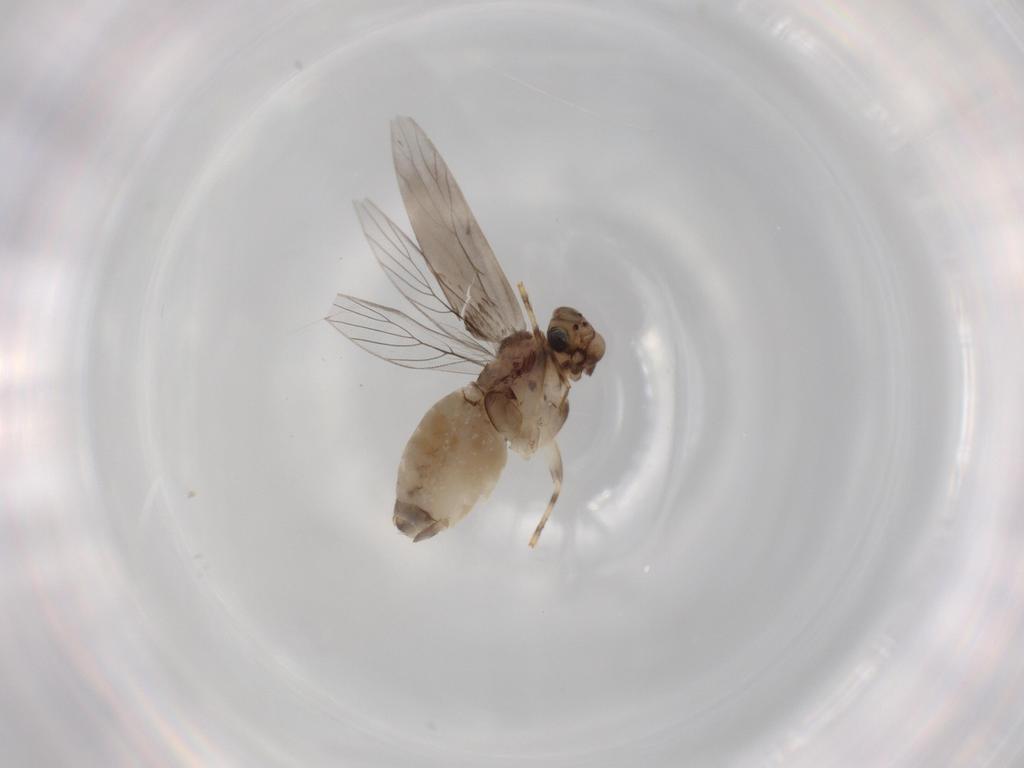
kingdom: Animalia
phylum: Arthropoda
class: Insecta
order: Psocodea
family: Lepidopsocidae
